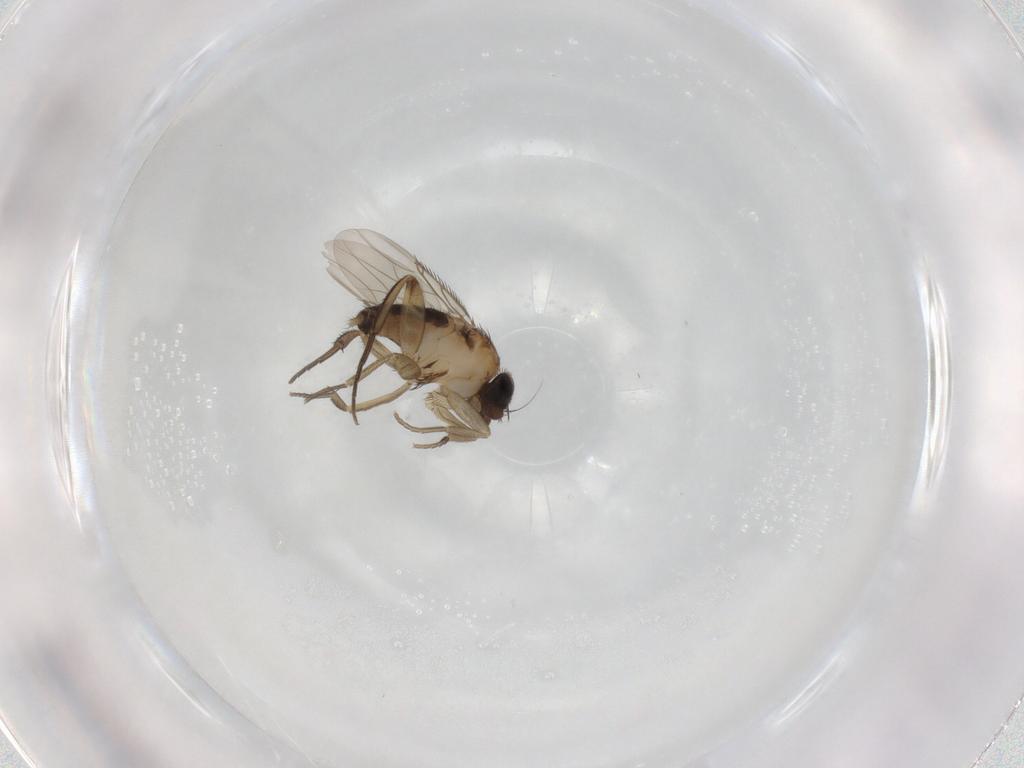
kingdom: Animalia
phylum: Arthropoda
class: Insecta
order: Diptera
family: Phoridae
